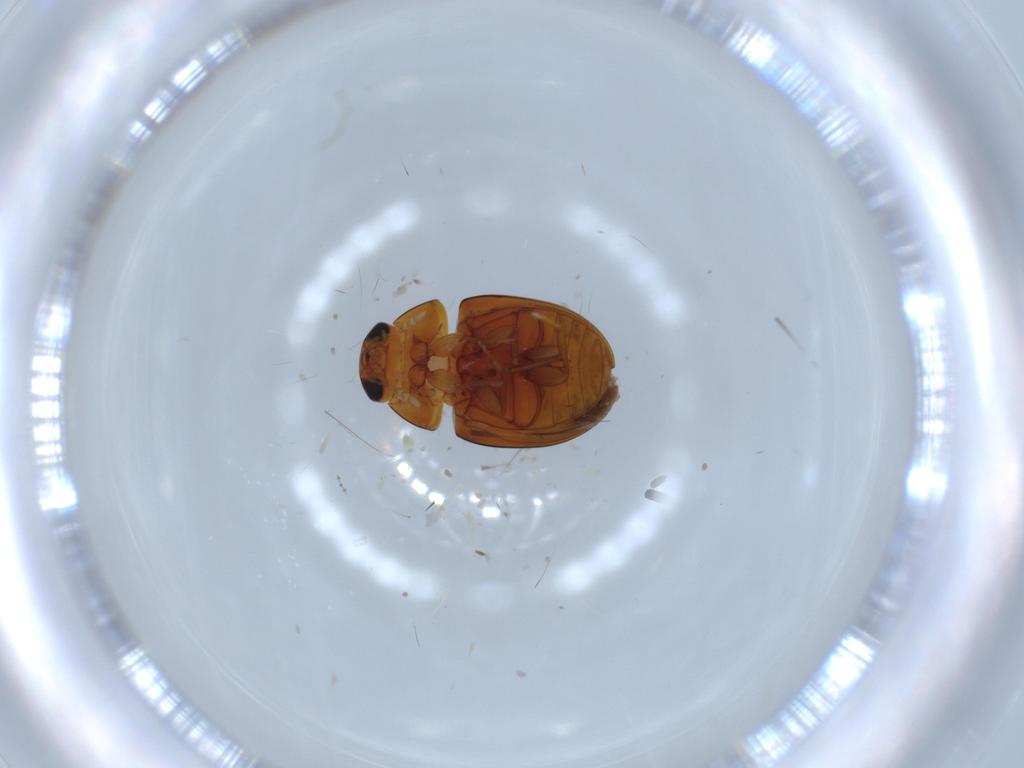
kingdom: Animalia
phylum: Arthropoda
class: Insecta
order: Coleoptera
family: Phalacridae
